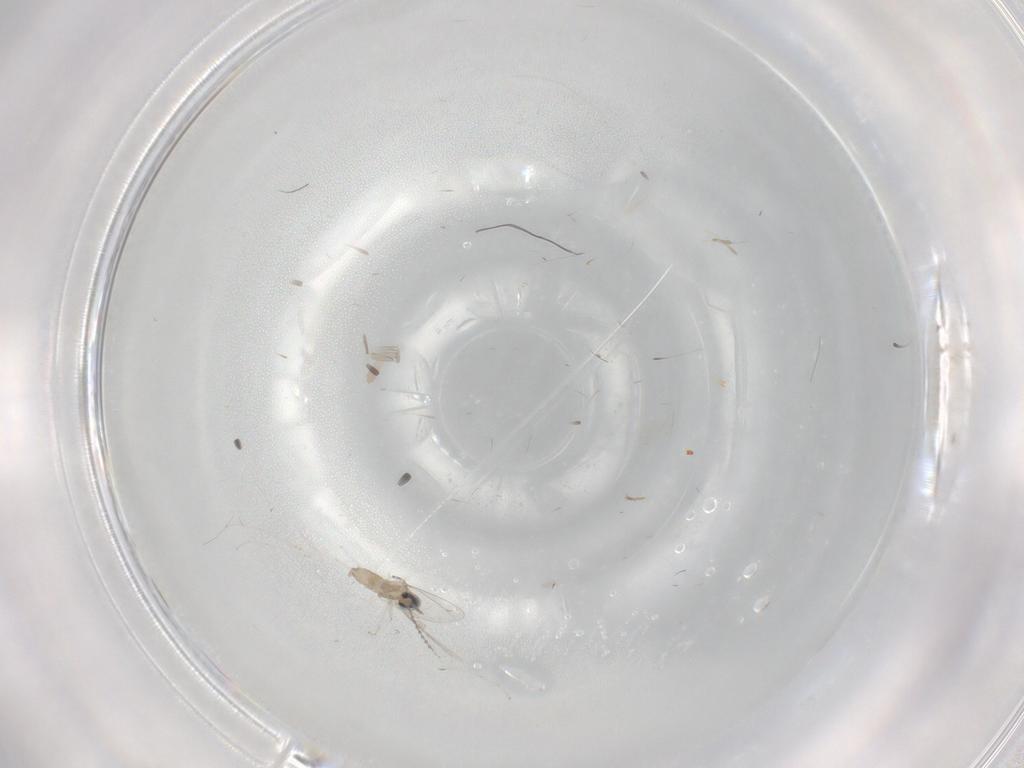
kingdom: Animalia
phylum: Arthropoda
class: Insecta
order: Diptera
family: Cecidomyiidae
